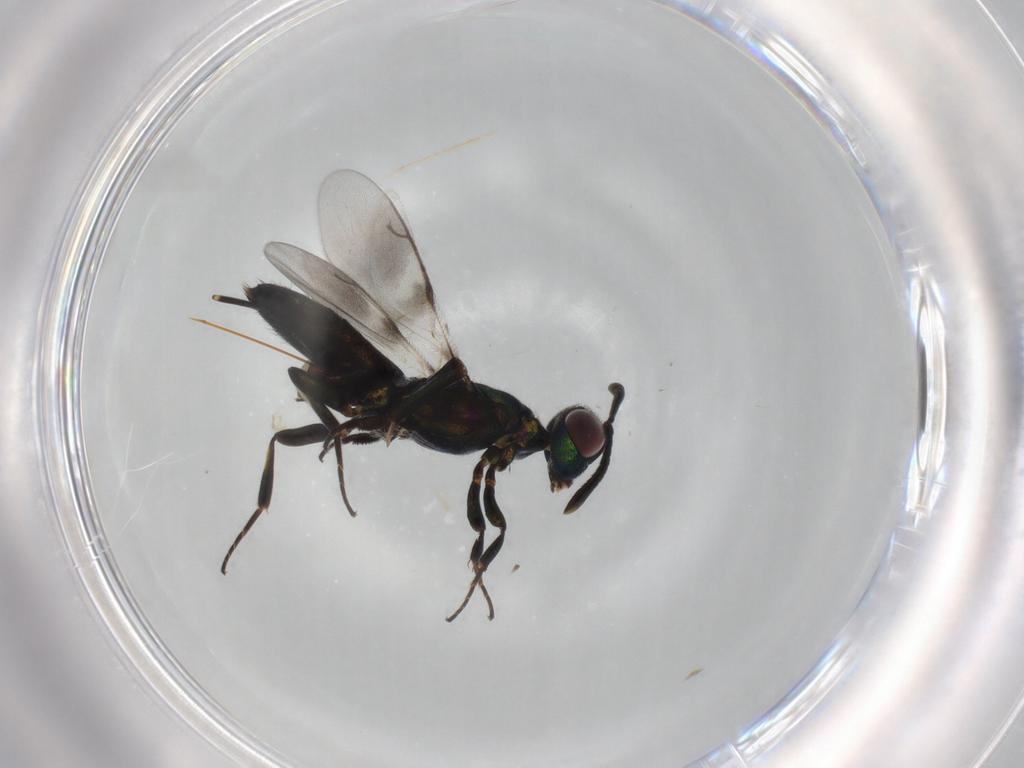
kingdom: Animalia
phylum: Arthropoda
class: Insecta
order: Hymenoptera
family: Eupelmidae
